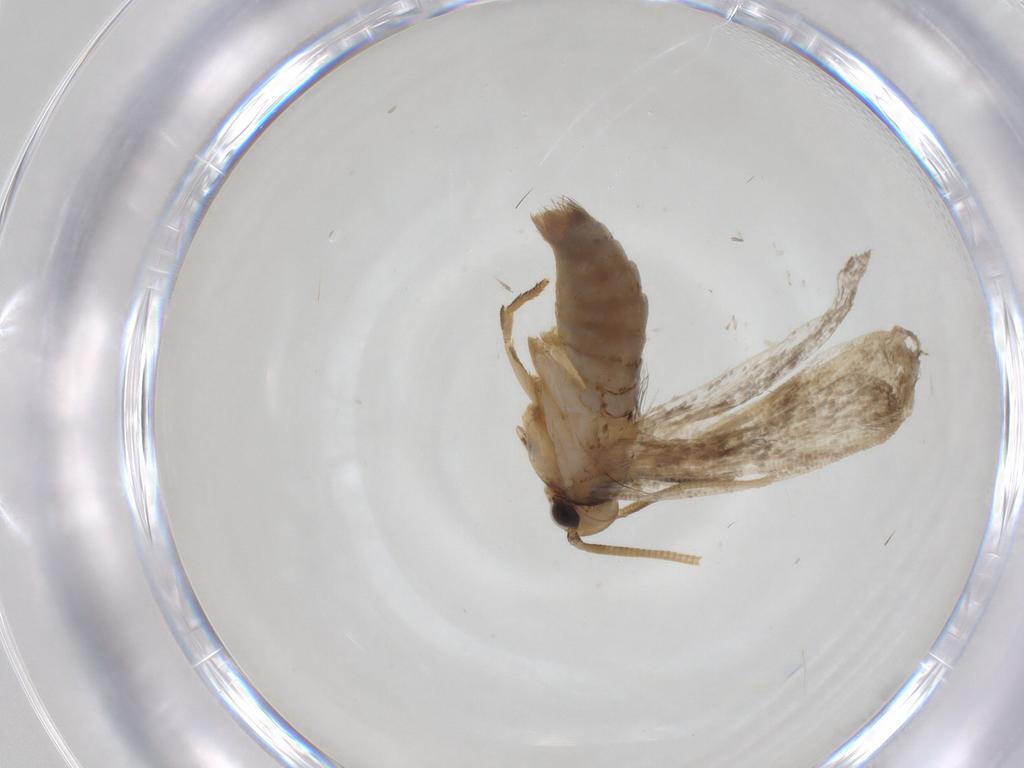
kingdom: Animalia
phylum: Arthropoda
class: Insecta
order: Lepidoptera
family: Gelechiidae
